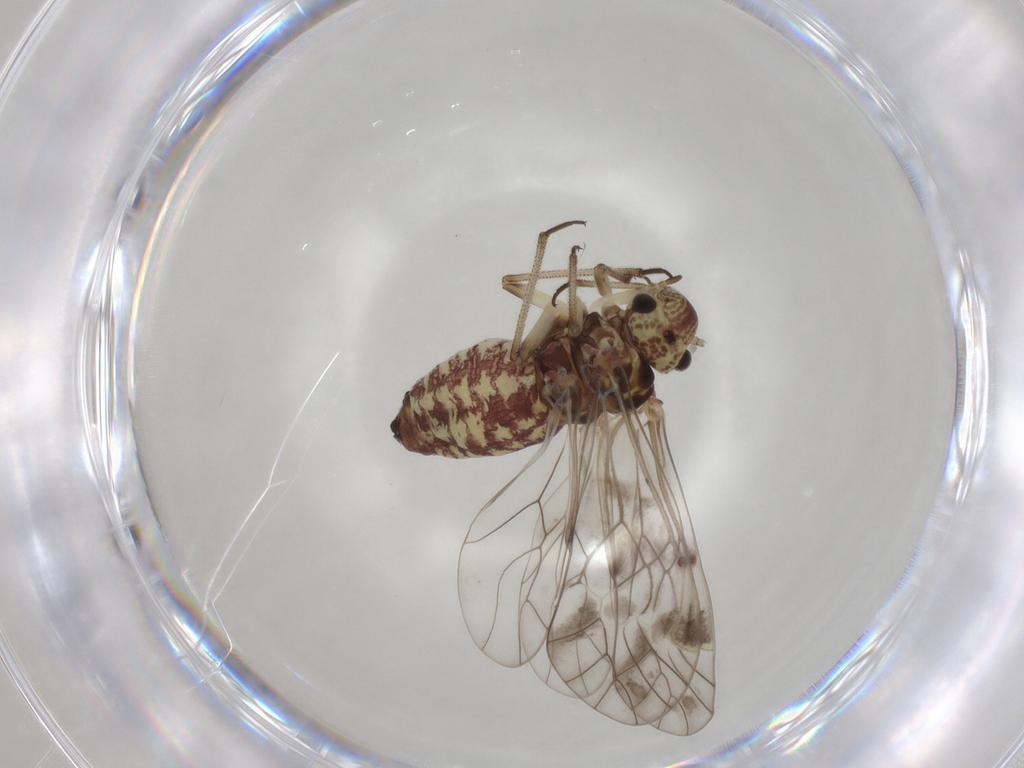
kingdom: Animalia
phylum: Arthropoda
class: Insecta
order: Psocodea
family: Psocidae
